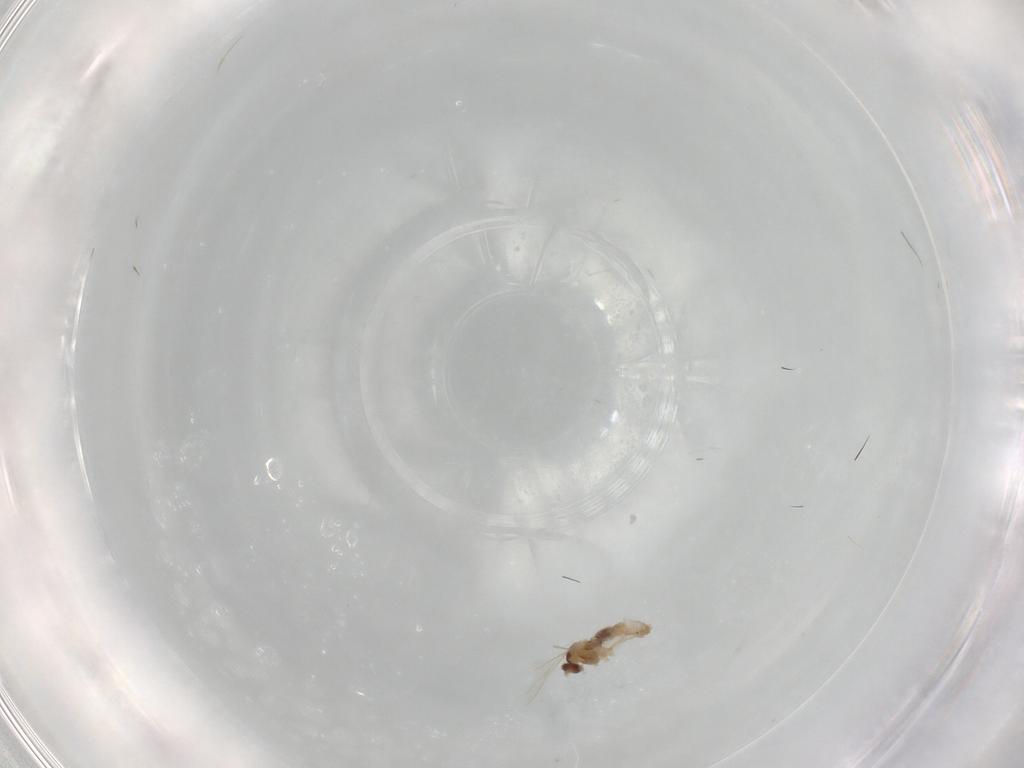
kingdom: Animalia
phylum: Arthropoda
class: Insecta
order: Diptera
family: Cecidomyiidae
